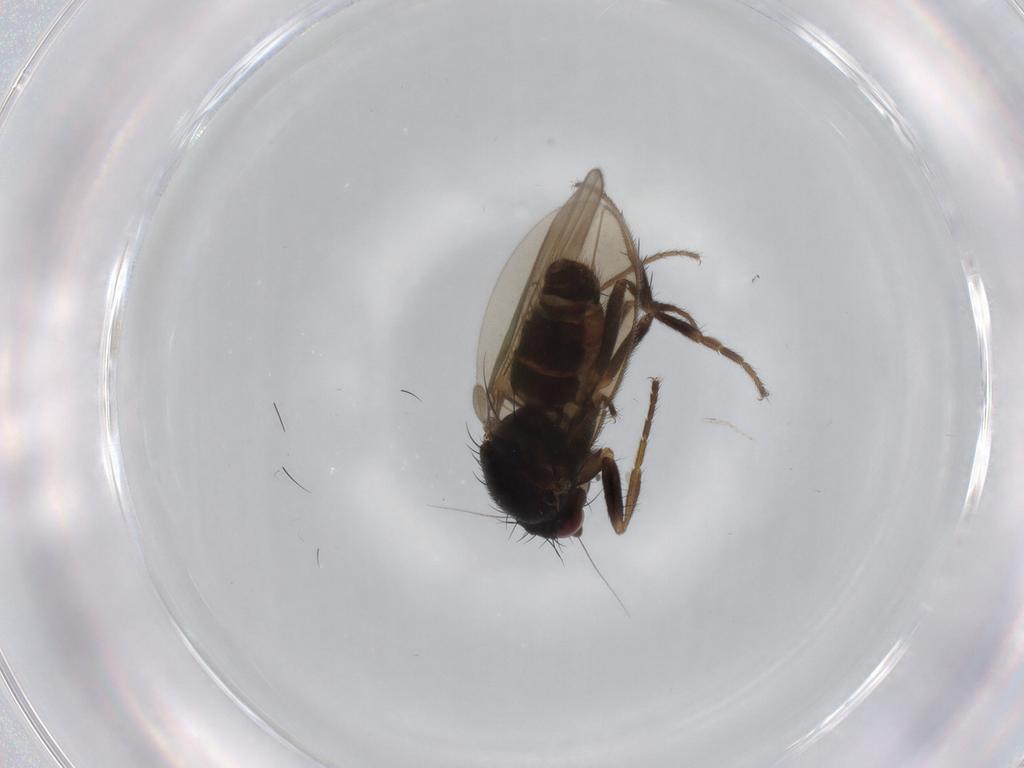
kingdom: Animalia
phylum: Arthropoda
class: Insecta
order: Diptera
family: Sphaeroceridae
